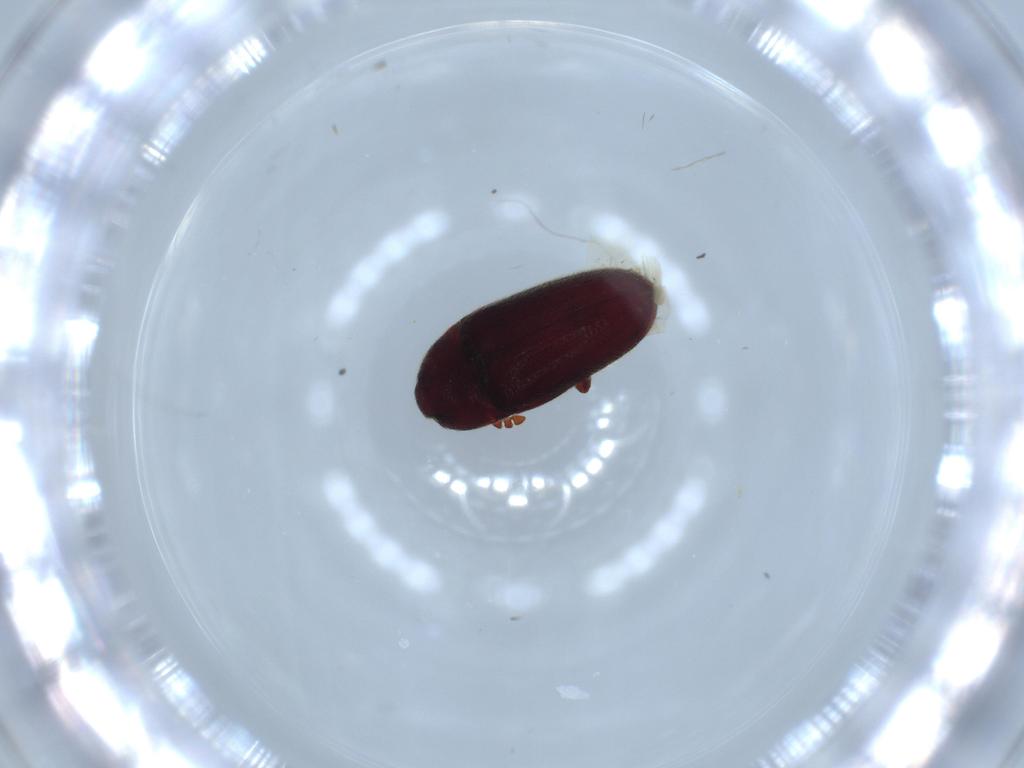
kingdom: Animalia
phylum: Arthropoda
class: Insecta
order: Coleoptera
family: Throscidae
